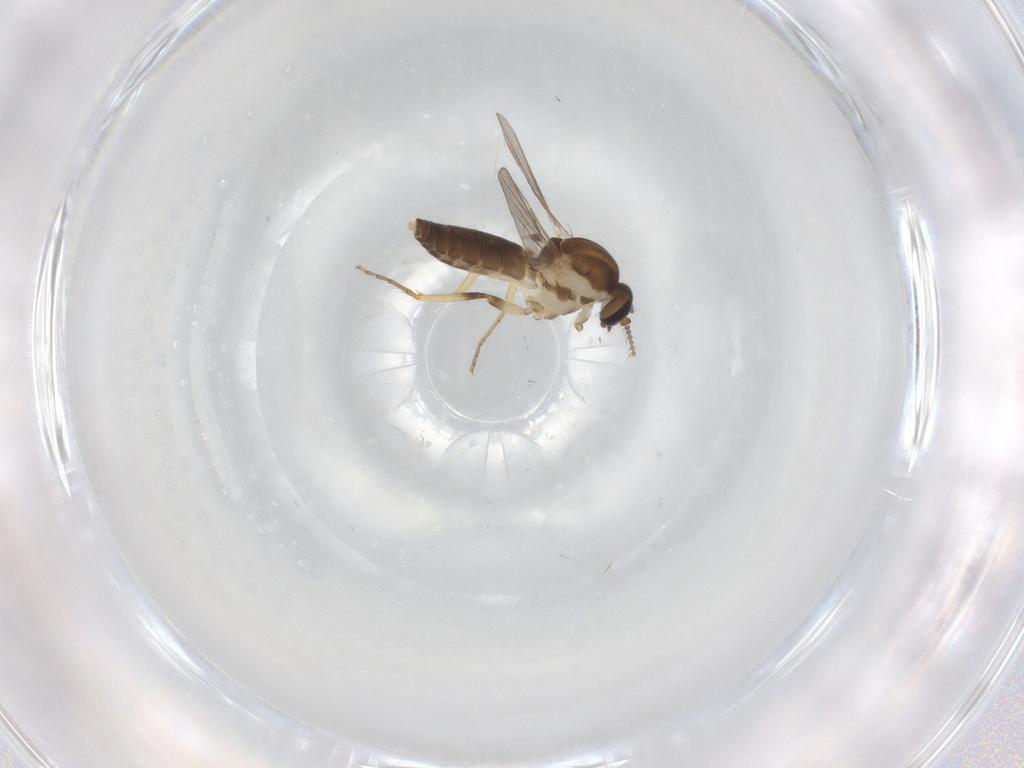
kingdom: Animalia
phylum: Arthropoda
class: Insecta
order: Diptera
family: Ceratopogonidae
